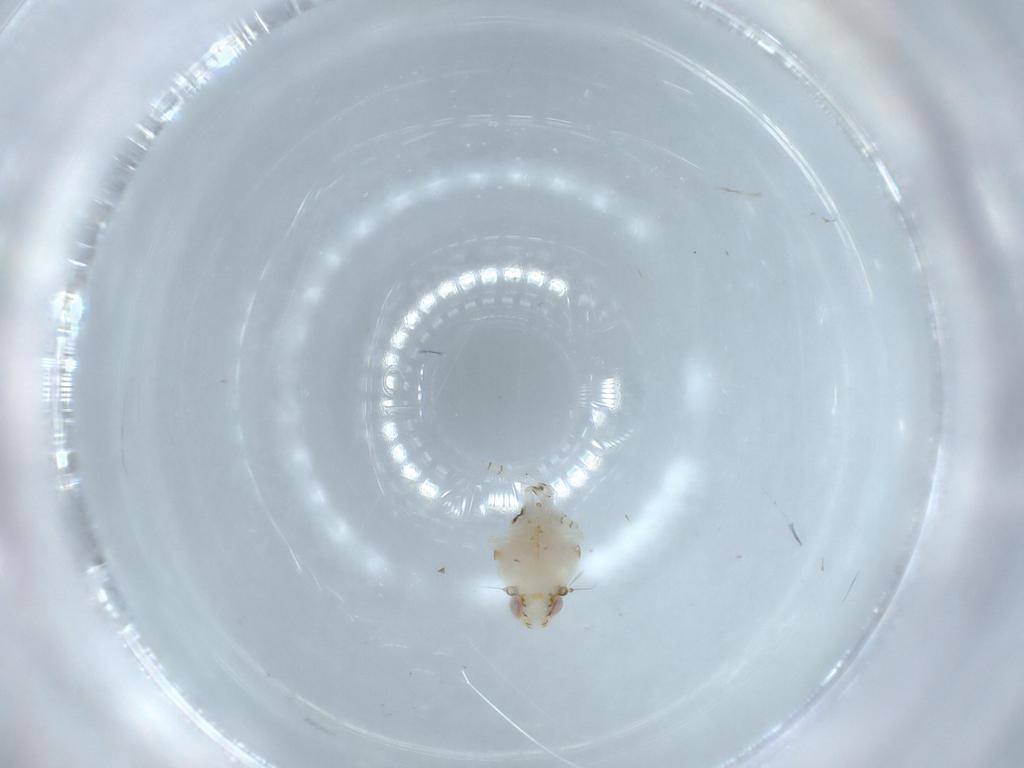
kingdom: Animalia
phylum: Arthropoda
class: Insecta
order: Hemiptera
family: Nogodinidae
